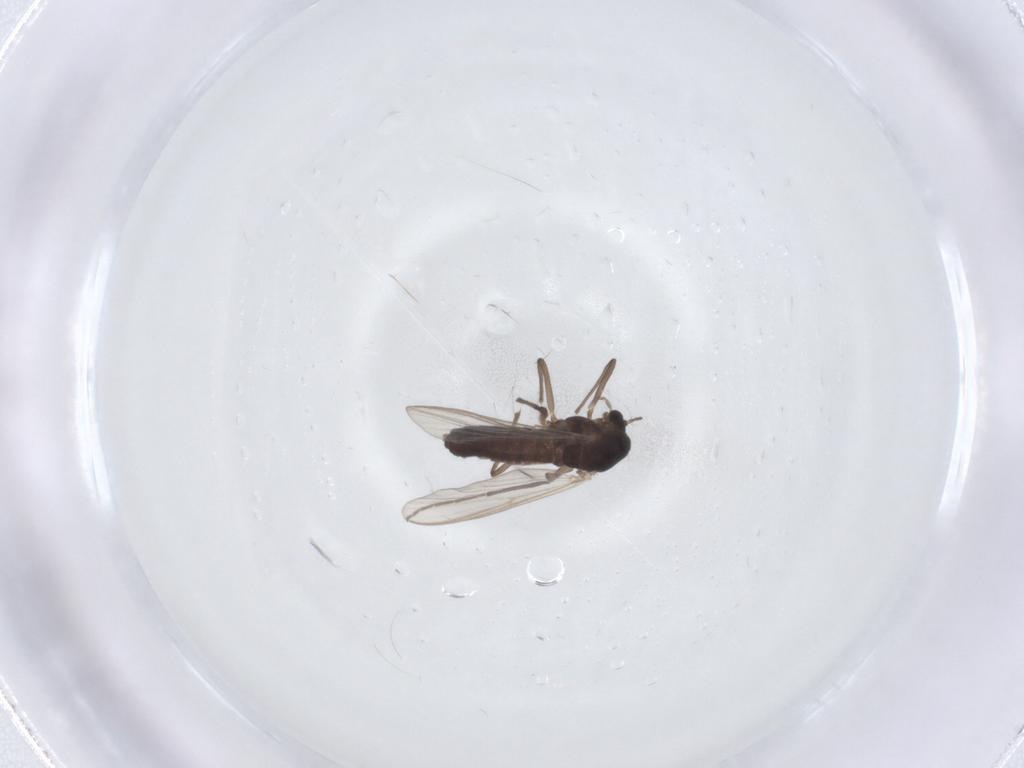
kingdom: Animalia
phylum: Arthropoda
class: Insecta
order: Diptera
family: Chironomidae
